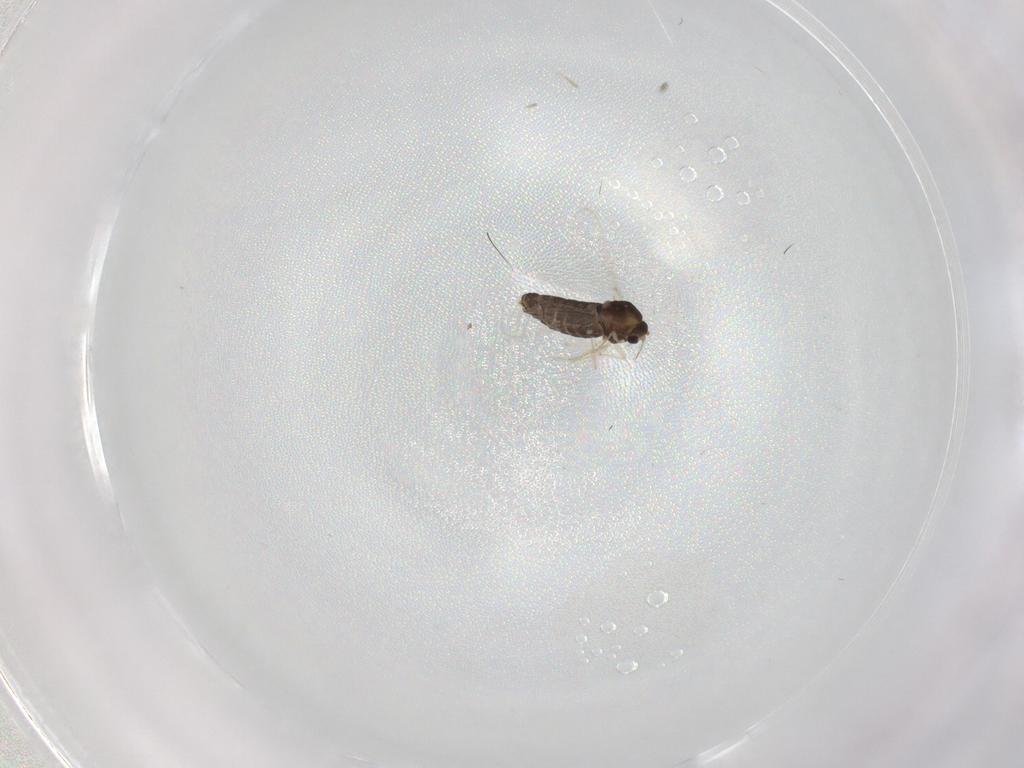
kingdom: Animalia
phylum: Arthropoda
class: Insecta
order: Diptera
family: Chironomidae
